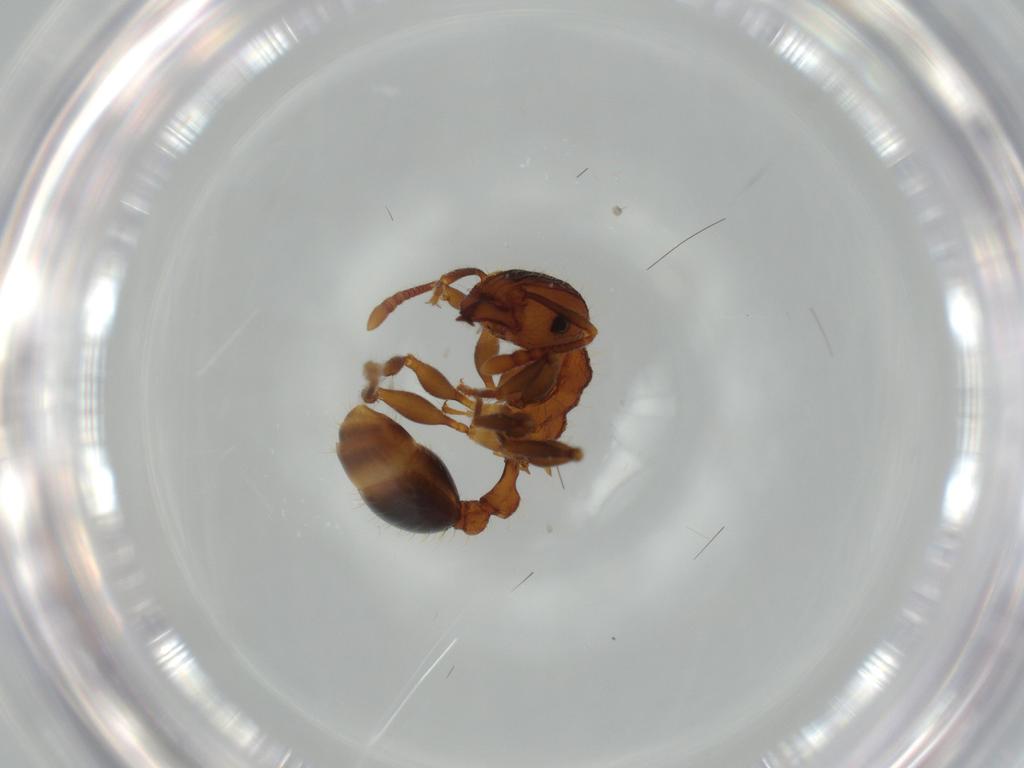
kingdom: Animalia
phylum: Arthropoda
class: Insecta
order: Hymenoptera
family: Formicidae
